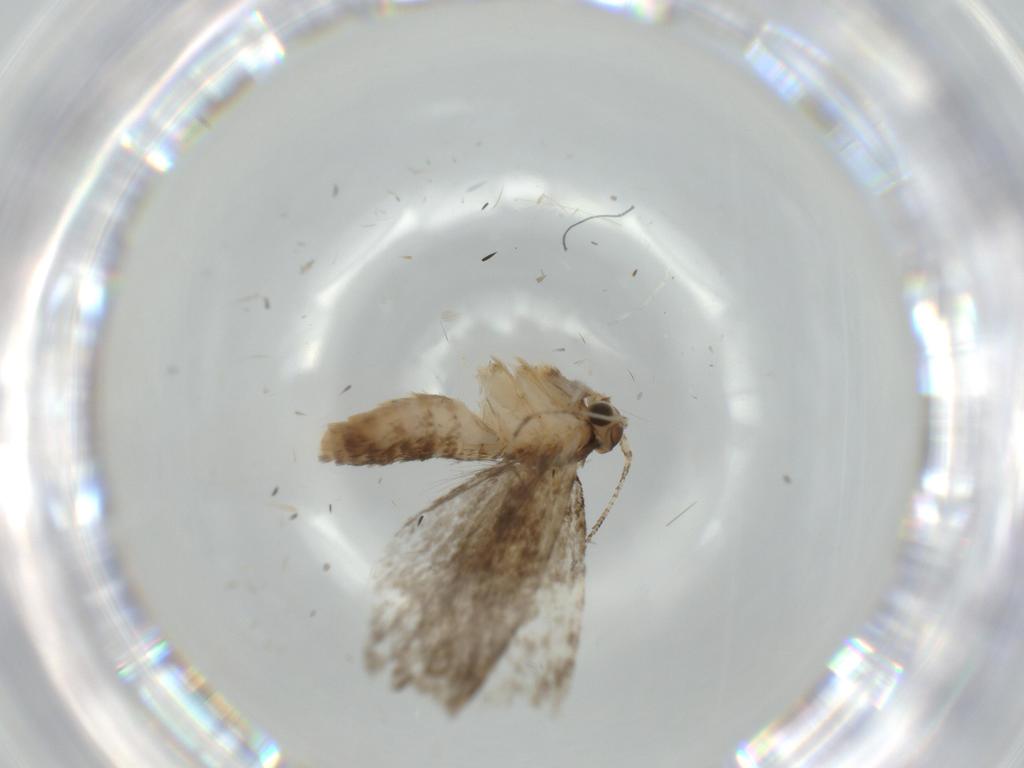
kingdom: Animalia
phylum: Arthropoda
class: Insecta
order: Lepidoptera
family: Tineidae
